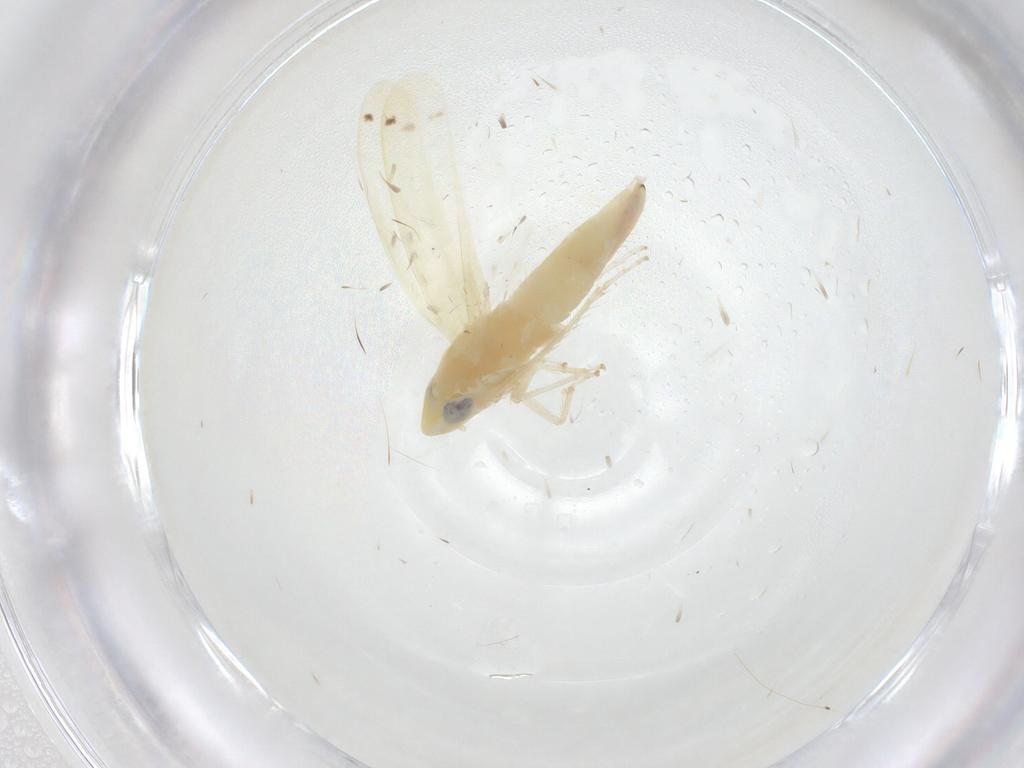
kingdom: Animalia
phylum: Arthropoda
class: Insecta
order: Hemiptera
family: Cicadellidae
